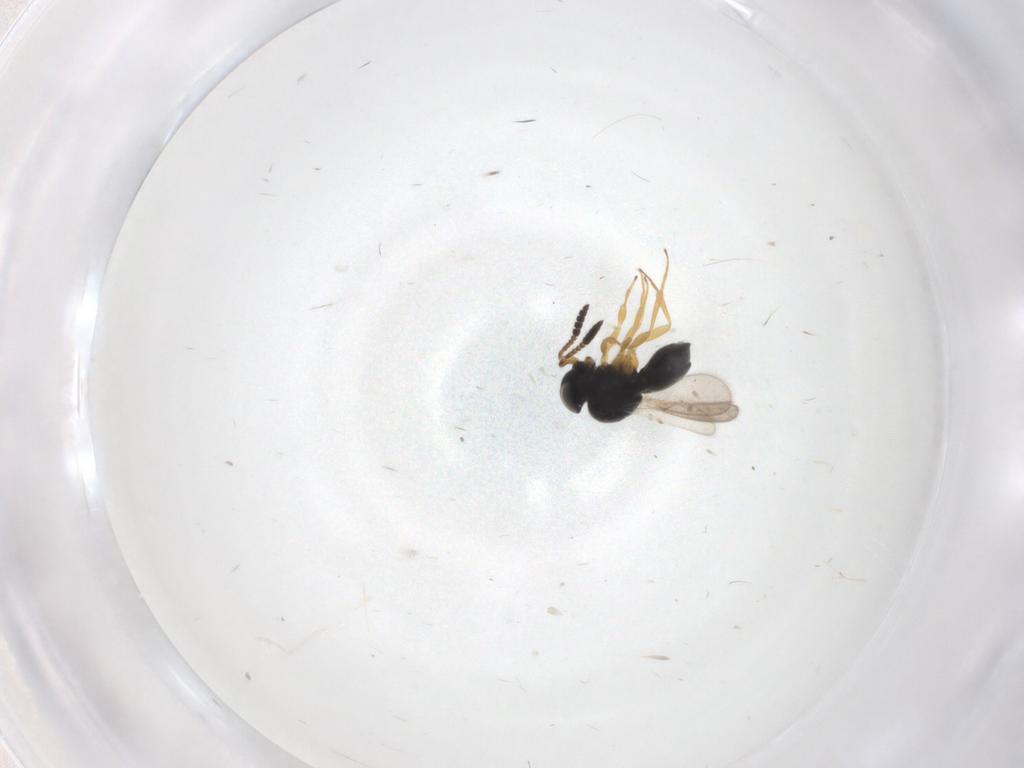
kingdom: Animalia
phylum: Arthropoda
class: Insecta
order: Hymenoptera
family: Scelionidae
